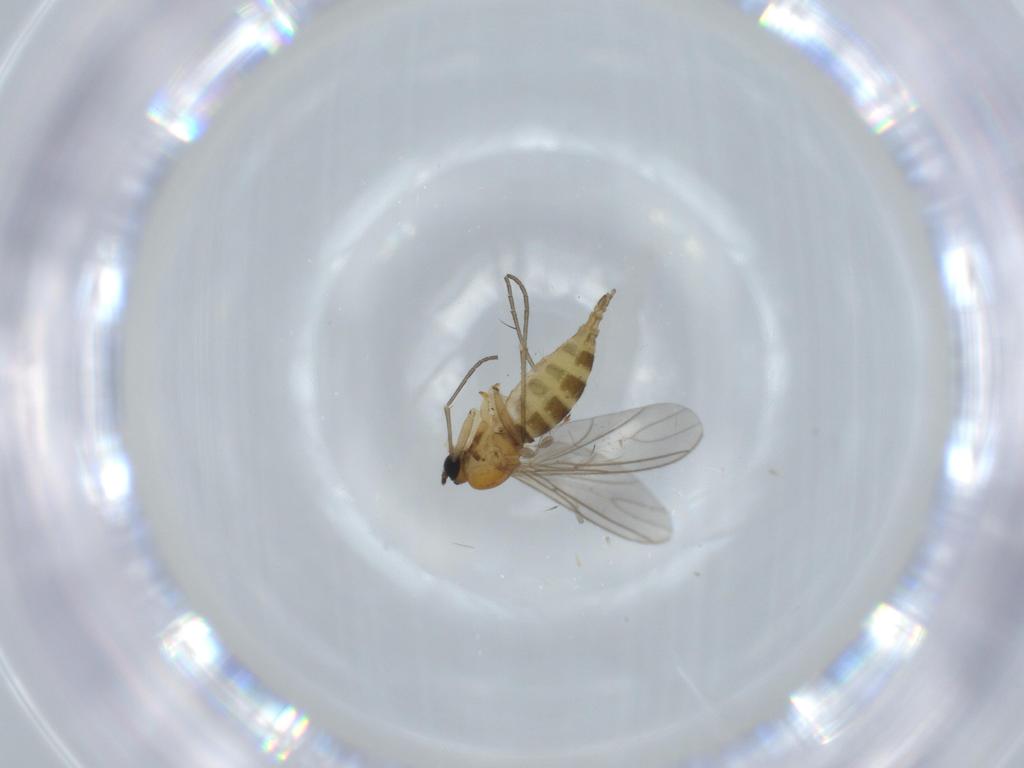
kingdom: Animalia
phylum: Arthropoda
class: Insecta
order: Diptera
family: Sciaridae
